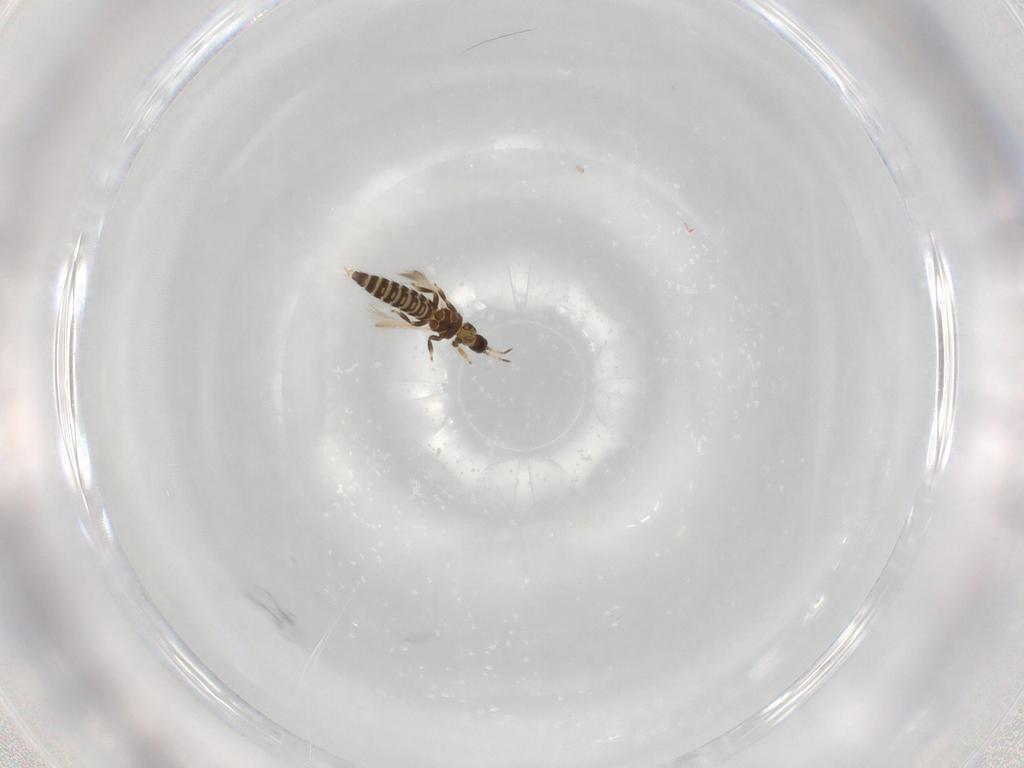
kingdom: Animalia
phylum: Arthropoda
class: Insecta
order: Thysanoptera
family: Thripidae
